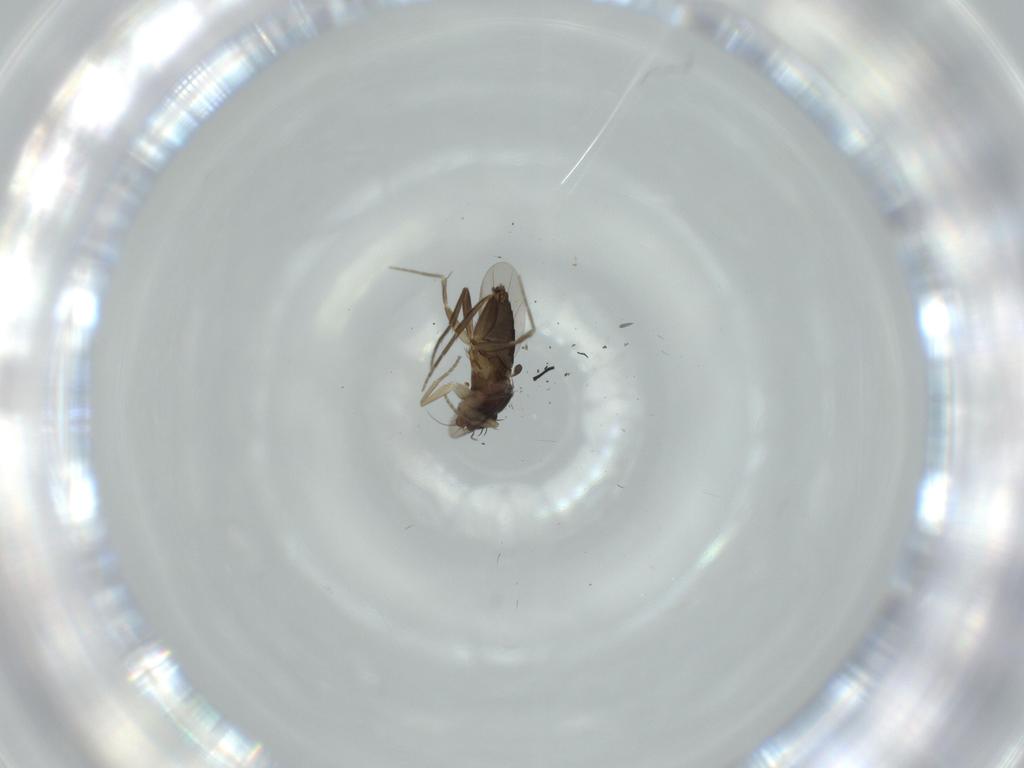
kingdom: Animalia
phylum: Arthropoda
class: Insecta
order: Diptera
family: Phoridae
